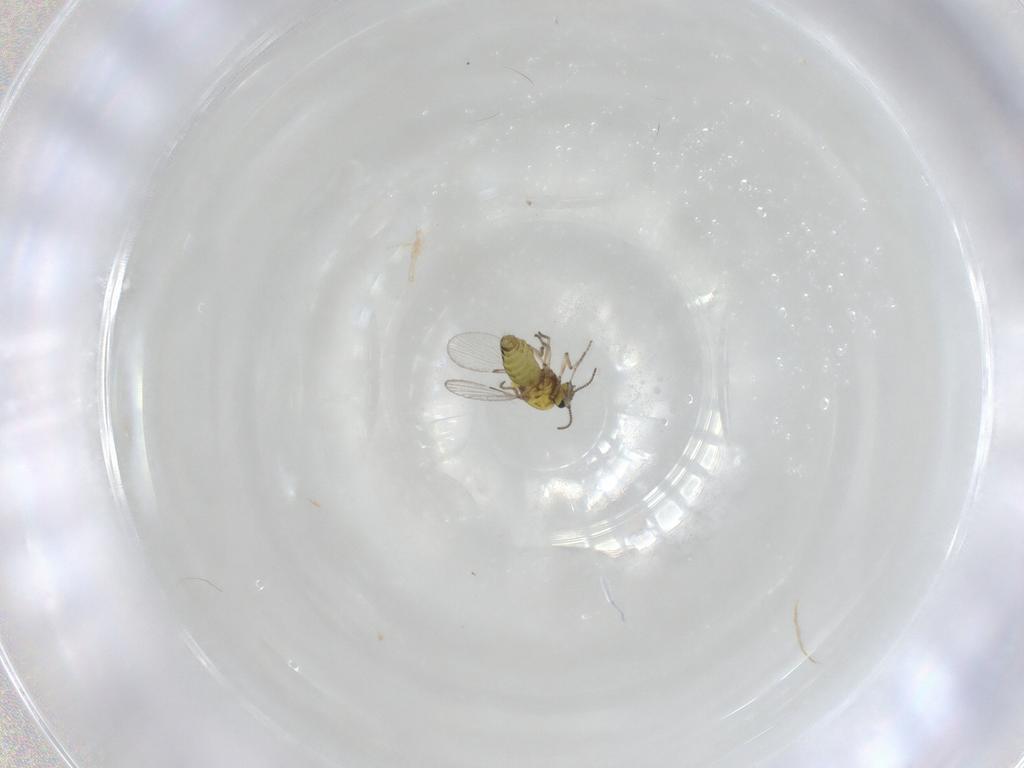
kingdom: Animalia
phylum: Arthropoda
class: Insecta
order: Diptera
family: Ceratopogonidae
